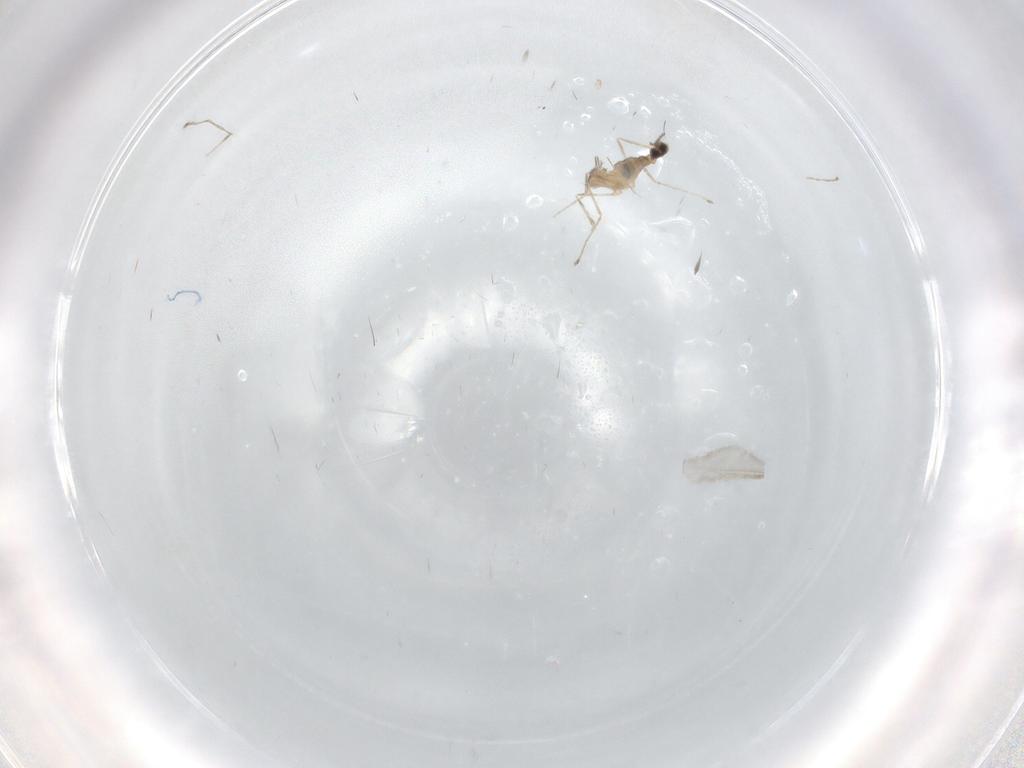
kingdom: Animalia
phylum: Arthropoda
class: Insecta
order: Diptera
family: Cecidomyiidae
